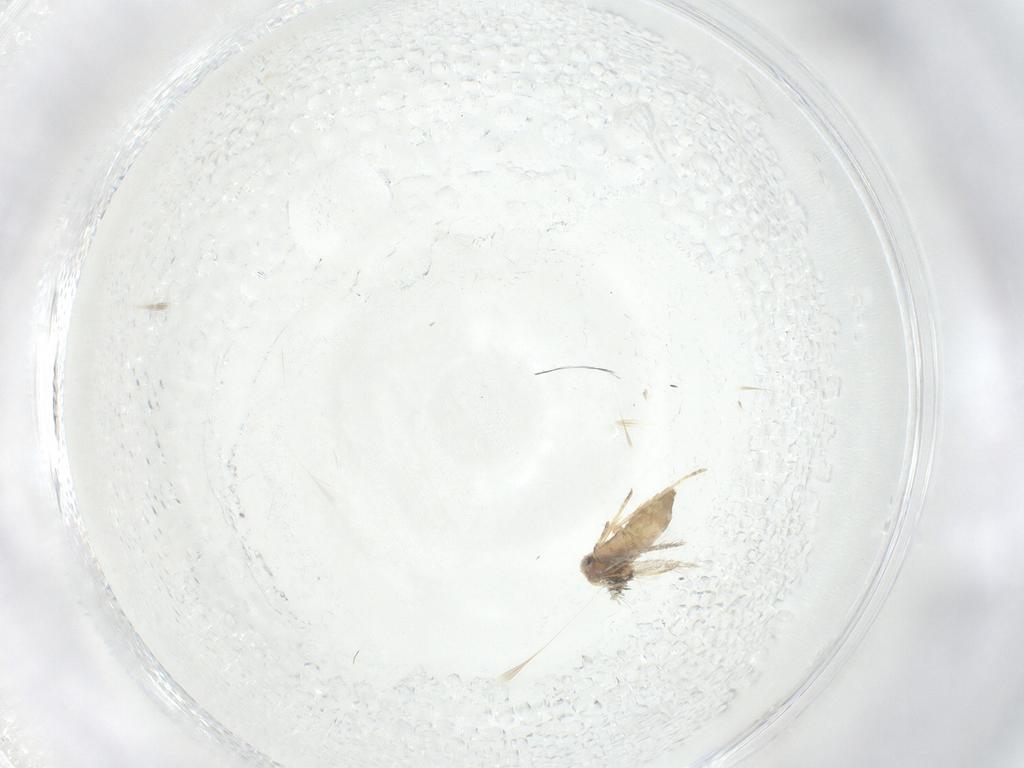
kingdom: Animalia
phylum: Arthropoda
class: Insecta
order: Lepidoptera
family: Nepticulidae
